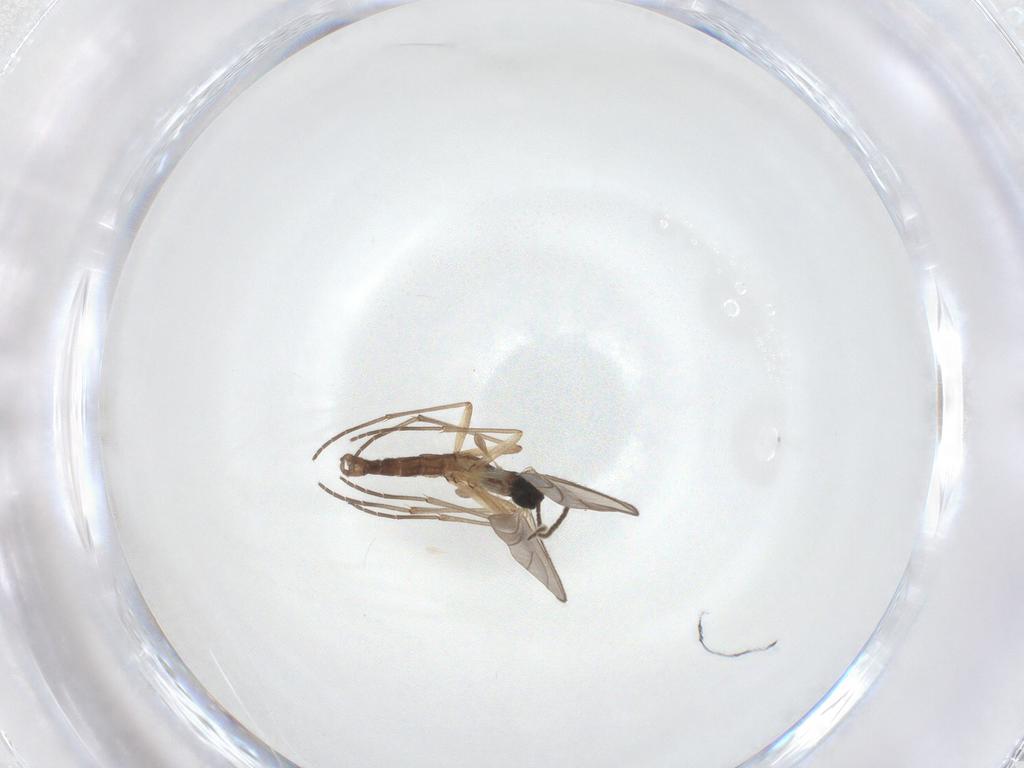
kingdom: Animalia
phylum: Arthropoda
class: Insecta
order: Diptera
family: Sciaridae
